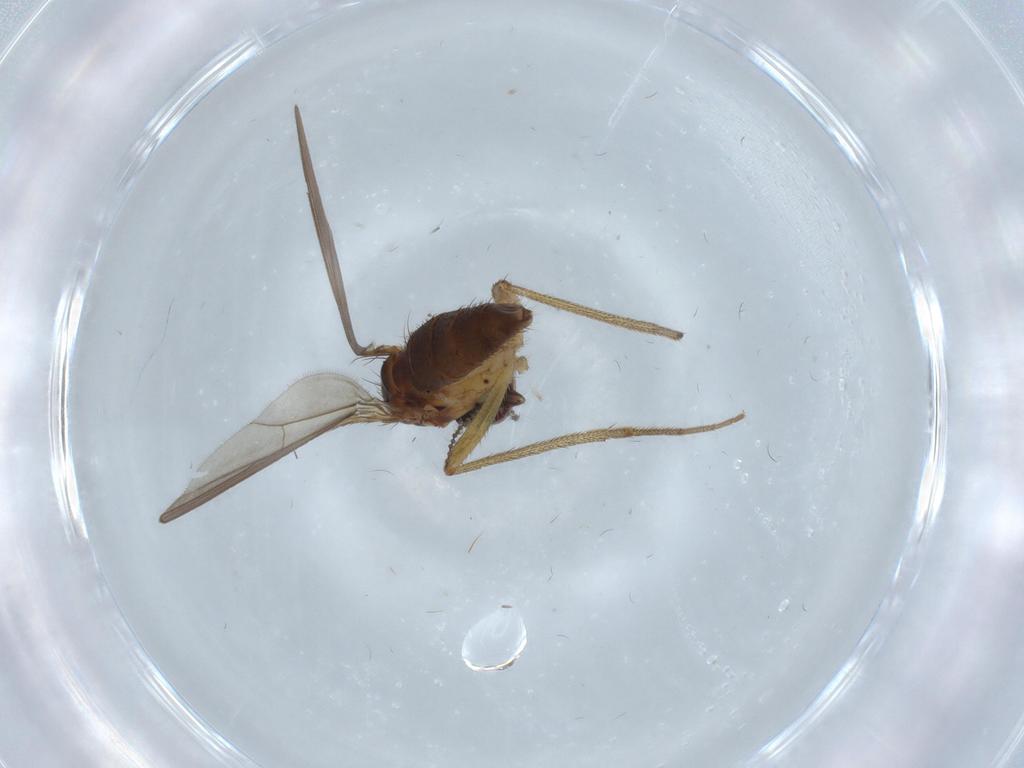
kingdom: Animalia
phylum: Arthropoda
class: Insecta
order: Diptera
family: Dolichopodidae
